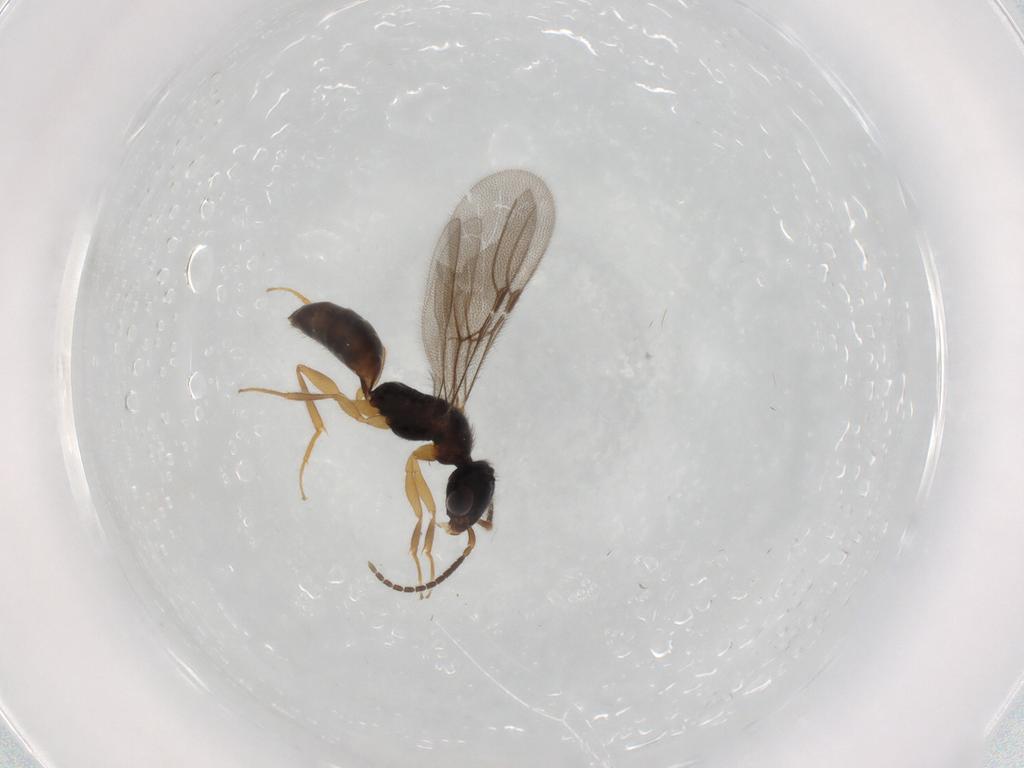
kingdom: Animalia
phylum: Arthropoda
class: Insecta
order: Hymenoptera
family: Bethylidae
